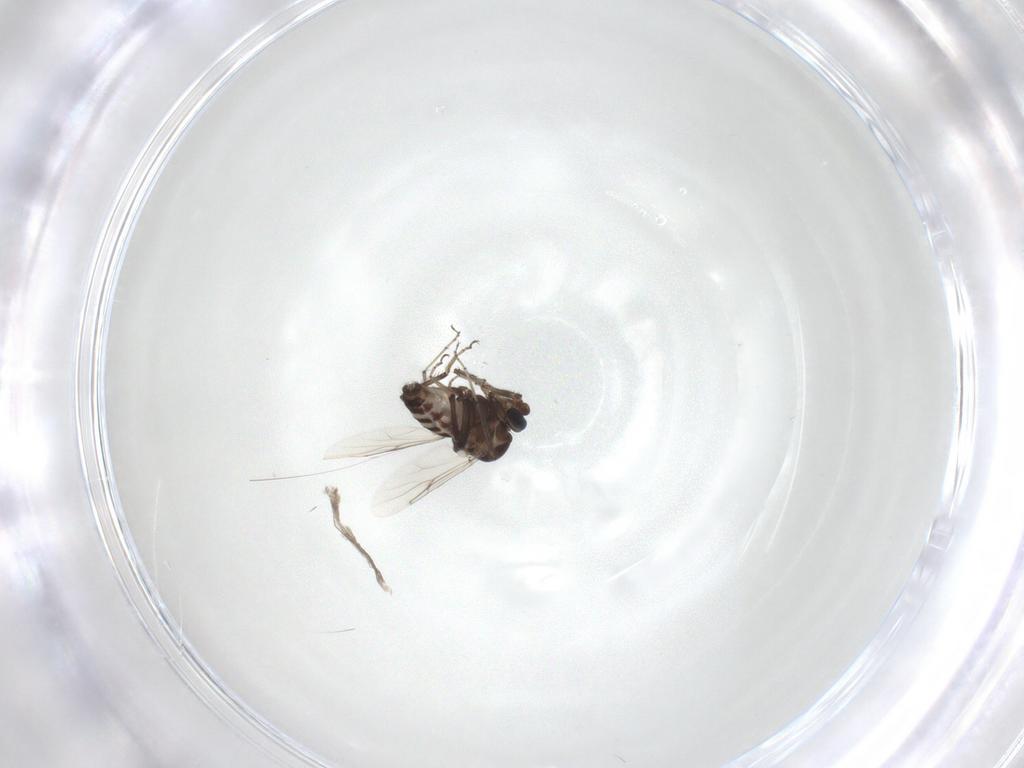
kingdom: Animalia
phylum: Arthropoda
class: Insecta
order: Diptera
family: Ceratopogonidae
